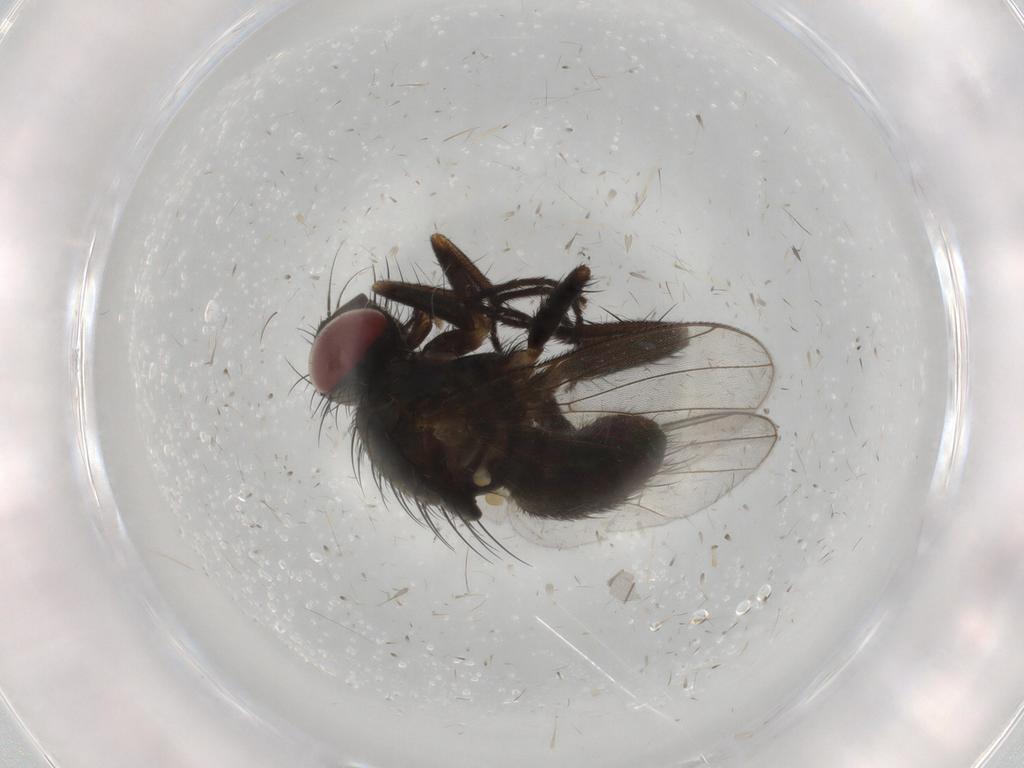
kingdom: Animalia
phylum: Arthropoda
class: Insecta
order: Diptera
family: Muscidae
